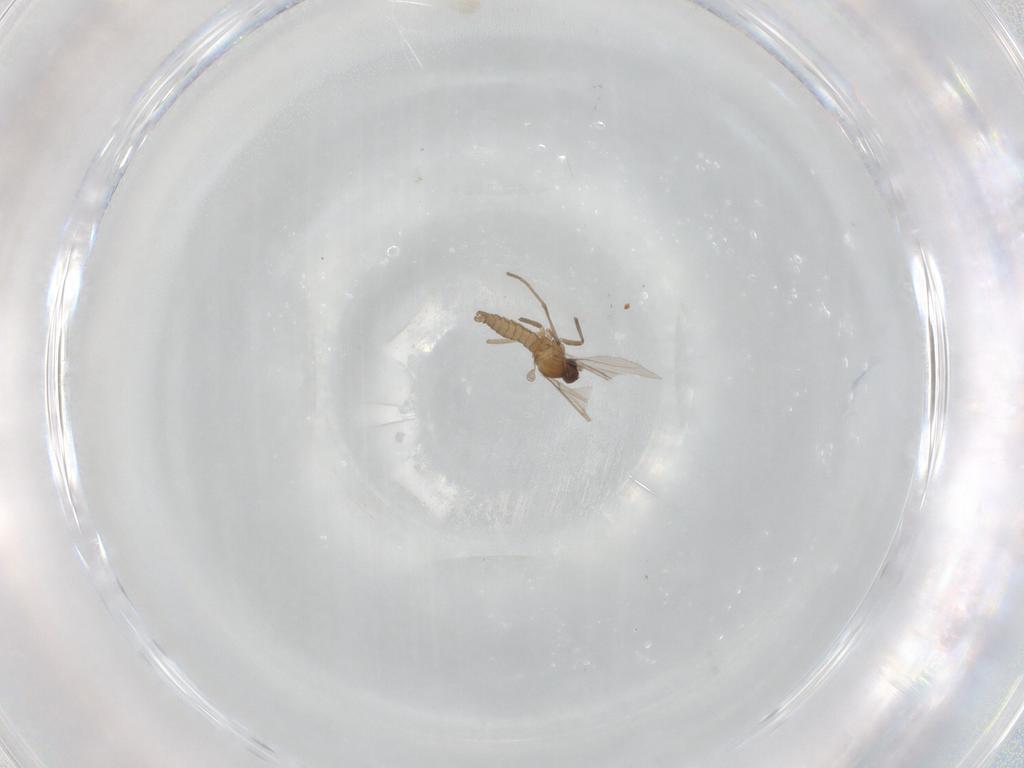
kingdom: Animalia
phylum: Arthropoda
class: Insecta
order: Diptera
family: Cecidomyiidae
